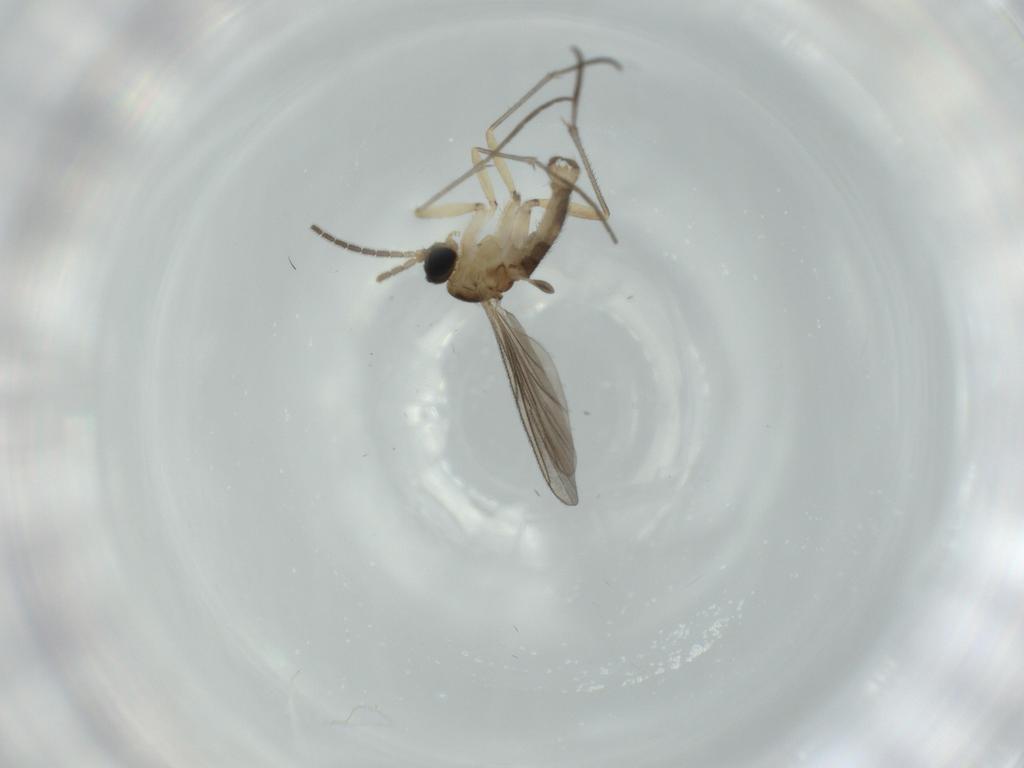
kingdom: Animalia
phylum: Arthropoda
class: Insecta
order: Diptera
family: Sciaridae
